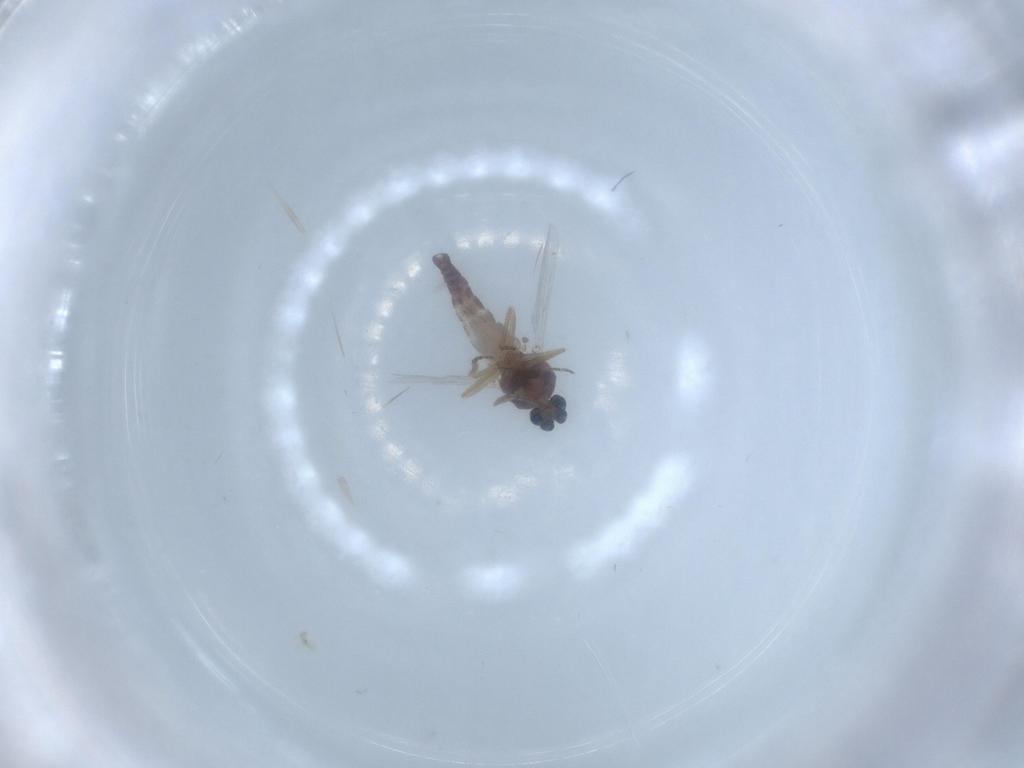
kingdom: Animalia
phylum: Arthropoda
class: Insecta
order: Diptera
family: Ceratopogonidae
